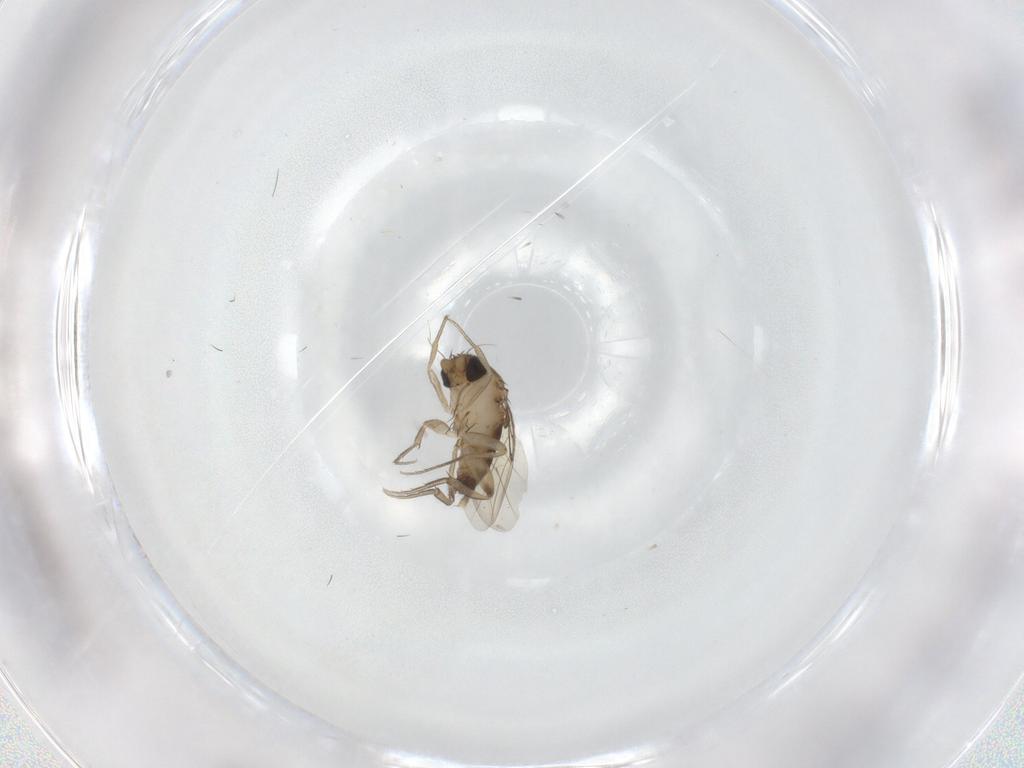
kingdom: Animalia
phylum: Arthropoda
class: Insecta
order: Diptera
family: Phoridae
